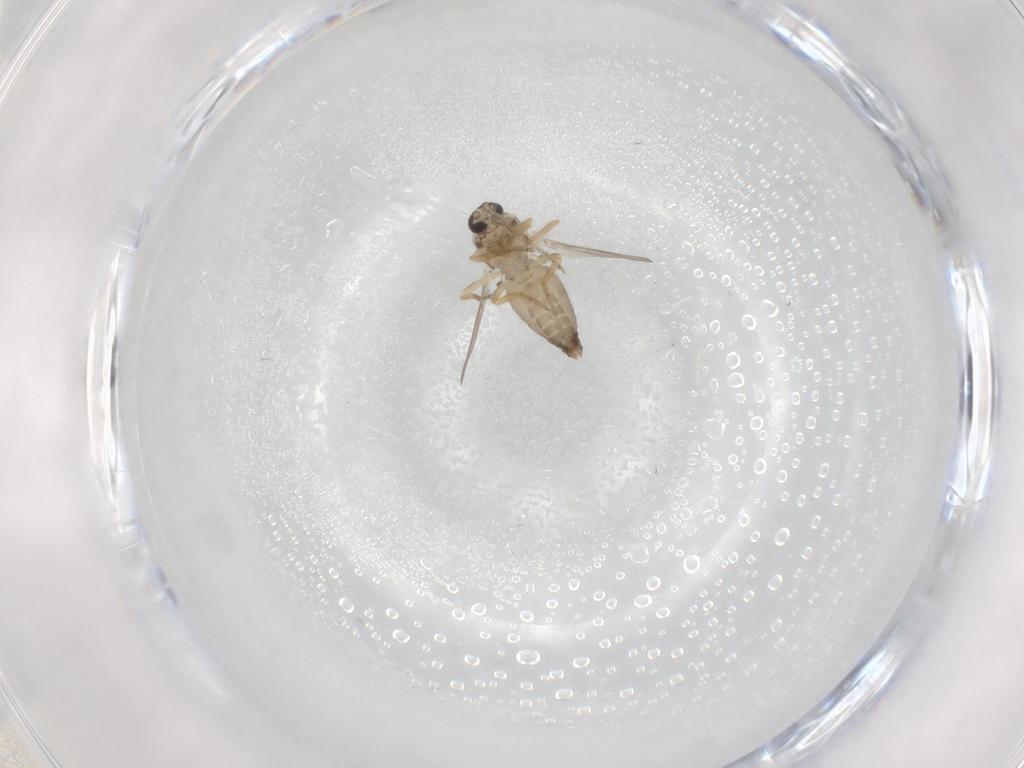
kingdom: Animalia
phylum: Arthropoda
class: Insecta
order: Diptera
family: Ceratopogonidae
